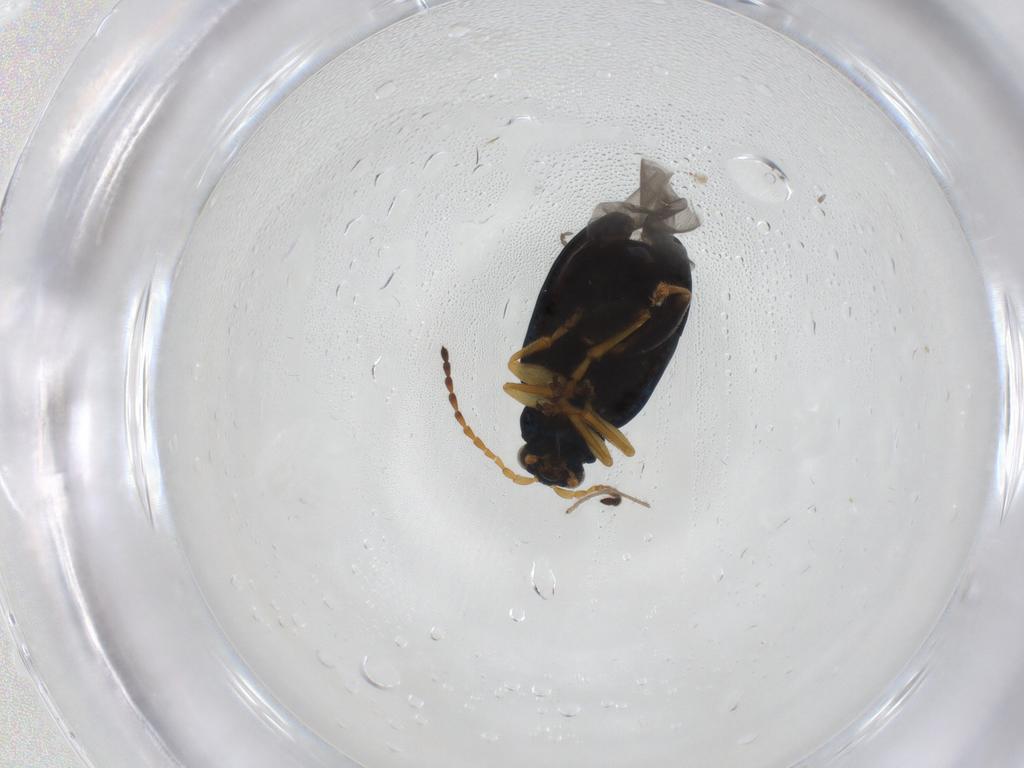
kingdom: Animalia
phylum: Arthropoda
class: Insecta
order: Coleoptera
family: Chrysomelidae
